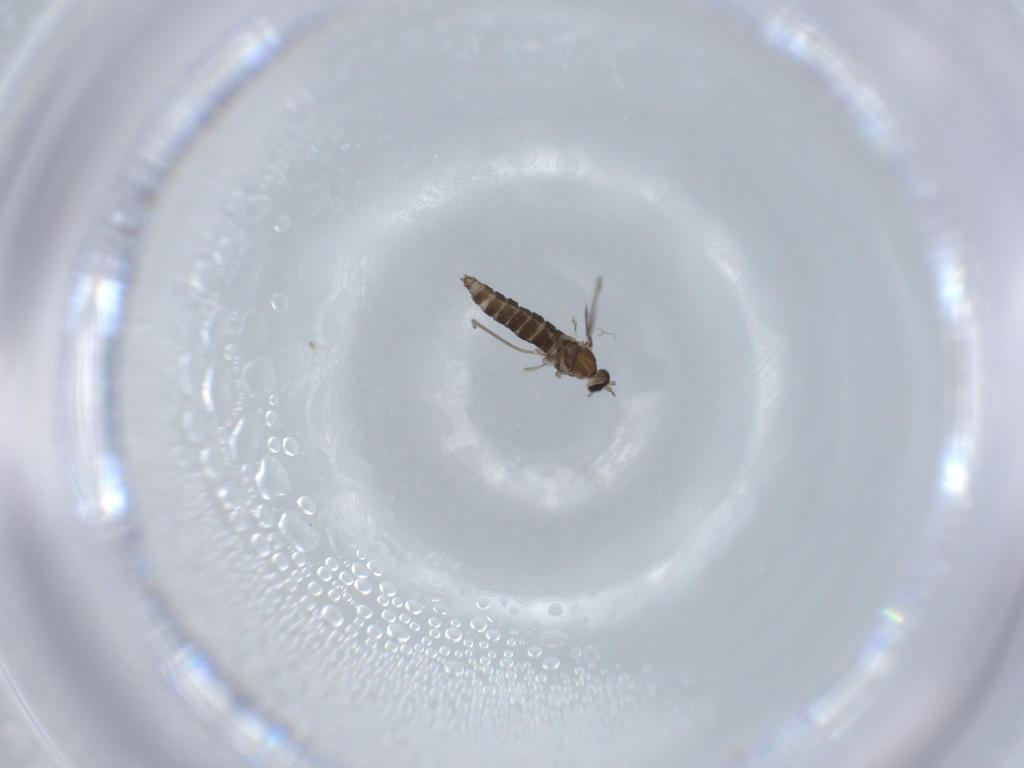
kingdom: Animalia
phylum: Arthropoda
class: Insecta
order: Diptera
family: Cecidomyiidae
